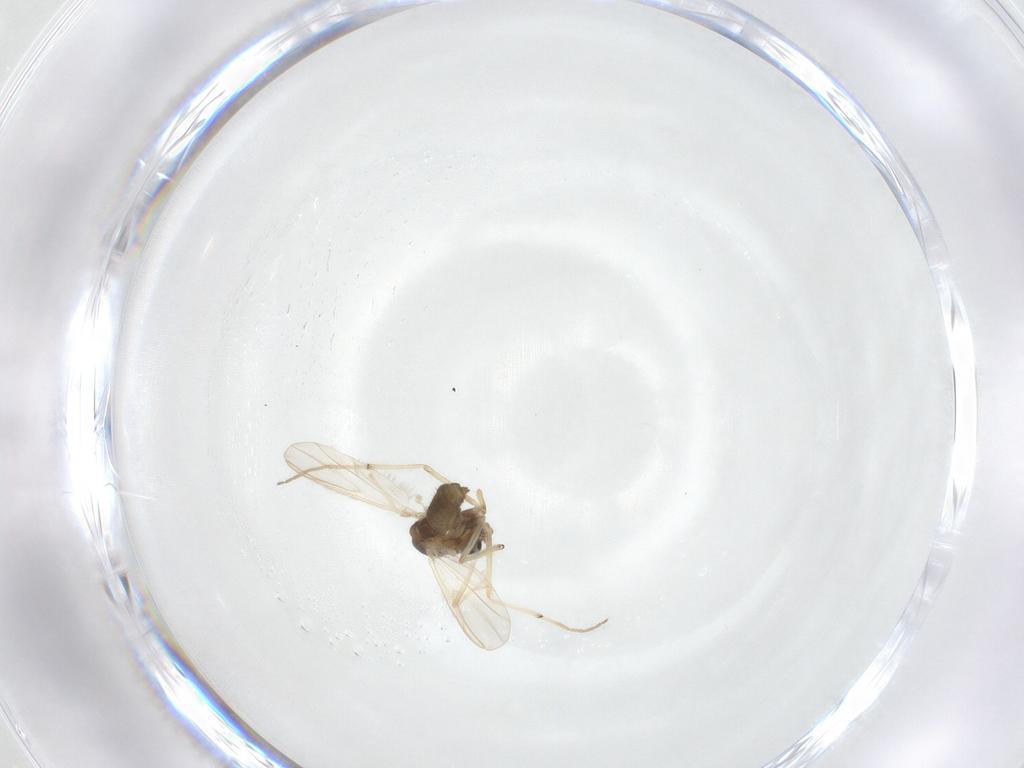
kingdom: Animalia
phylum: Arthropoda
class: Insecta
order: Diptera
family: Chironomidae
